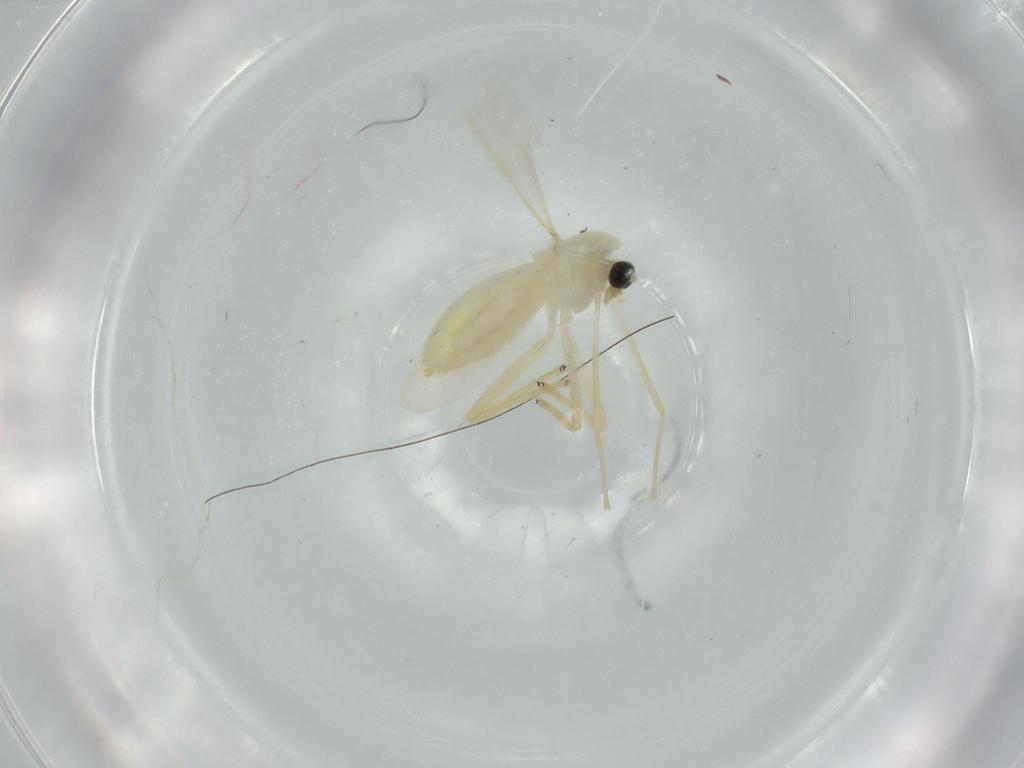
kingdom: Animalia
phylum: Arthropoda
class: Insecta
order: Diptera
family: Chironomidae
